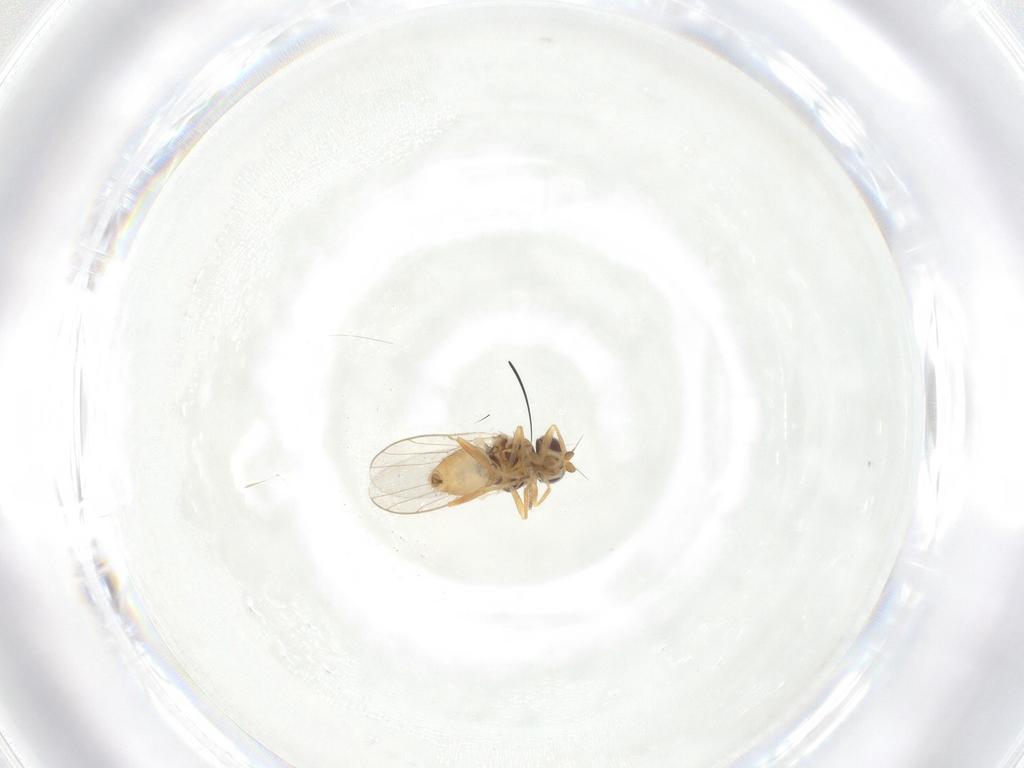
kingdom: Animalia
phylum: Arthropoda
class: Insecta
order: Diptera
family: Chloropidae
